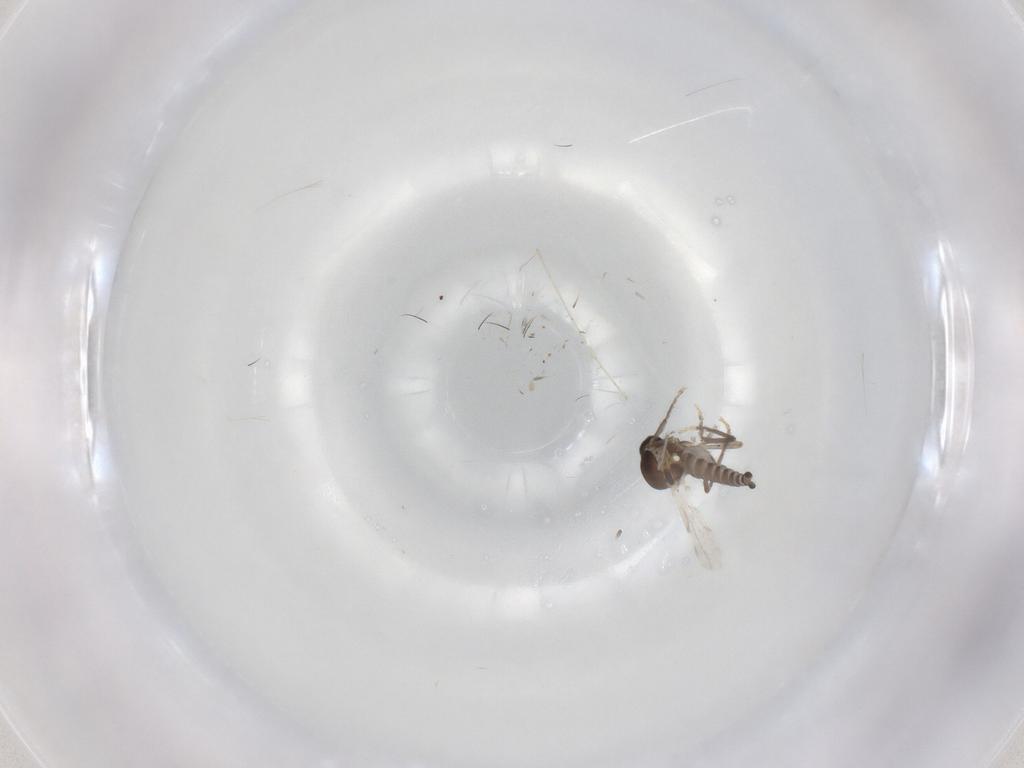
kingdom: Animalia
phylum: Arthropoda
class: Insecta
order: Diptera
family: Ceratopogonidae
